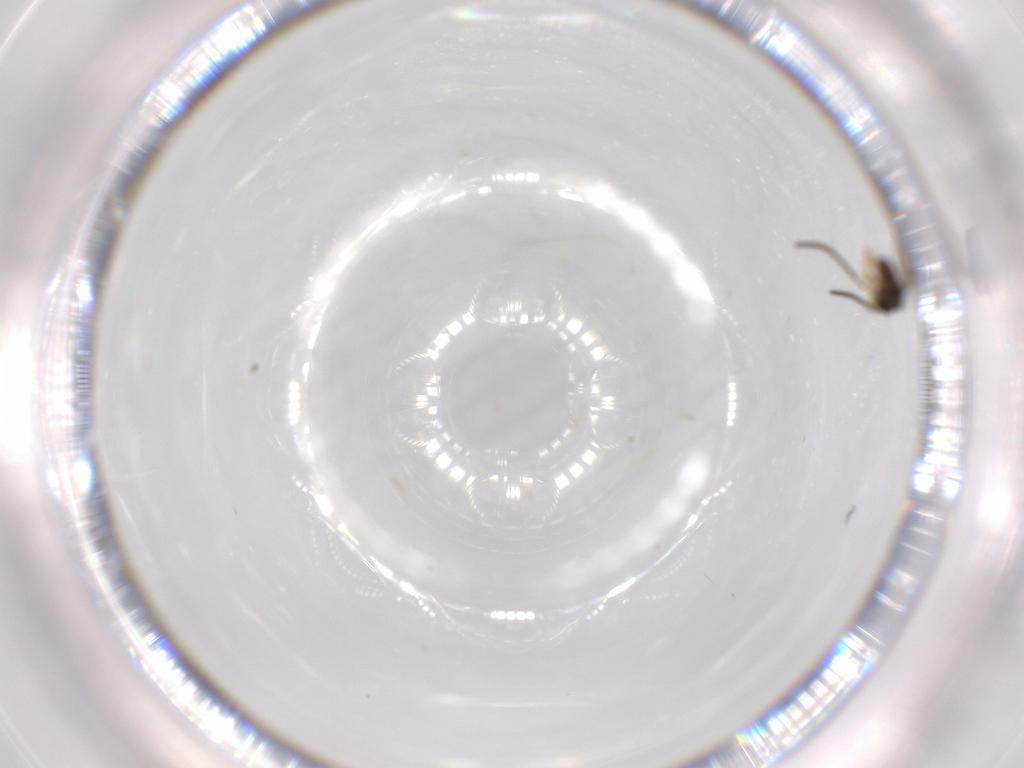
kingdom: Animalia
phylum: Arthropoda
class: Insecta
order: Hymenoptera
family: Ceraphronidae
